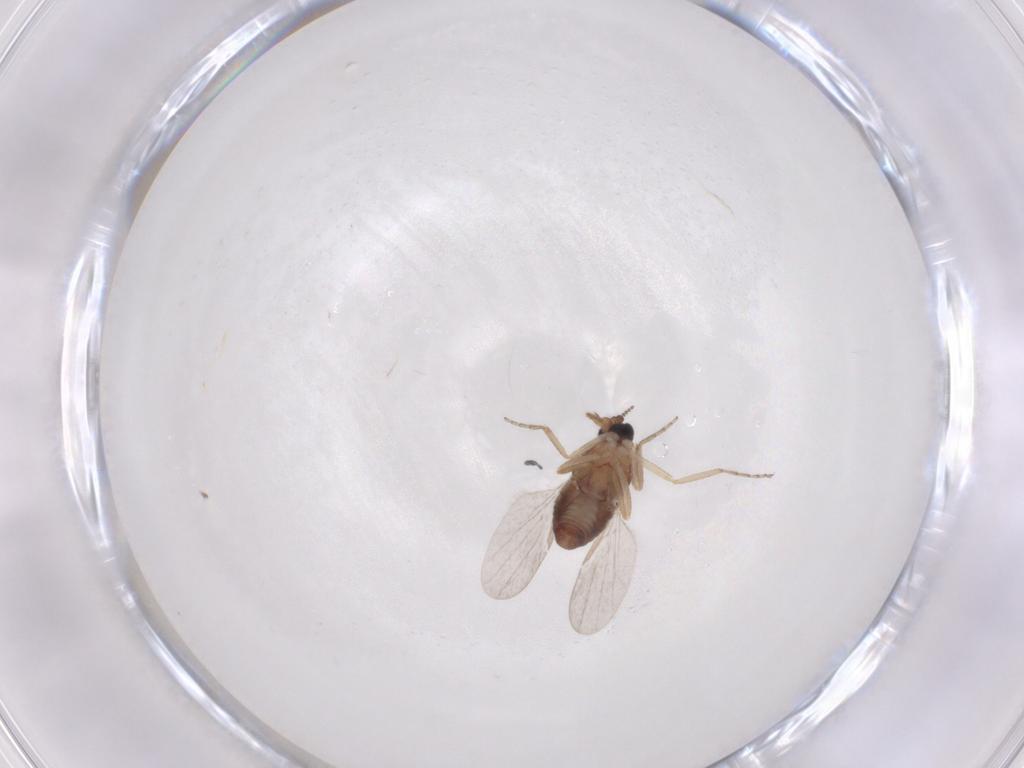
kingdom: Animalia
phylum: Arthropoda
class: Insecta
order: Diptera
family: Ceratopogonidae
